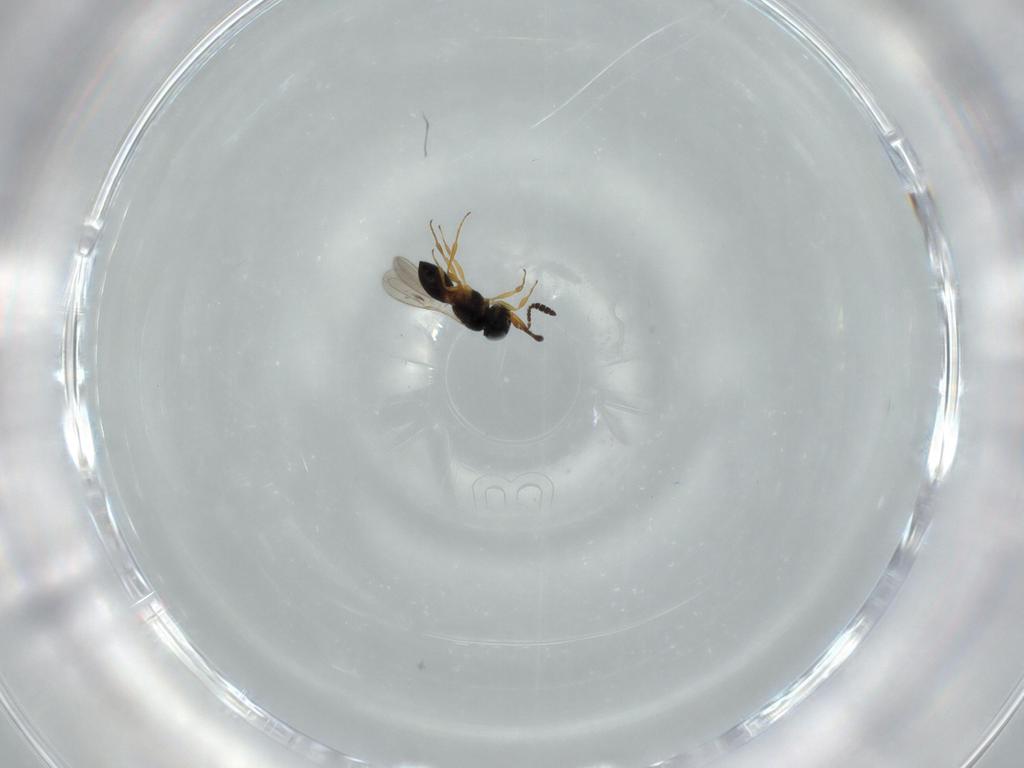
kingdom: Animalia
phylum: Arthropoda
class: Insecta
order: Hymenoptera
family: Scelionidae
